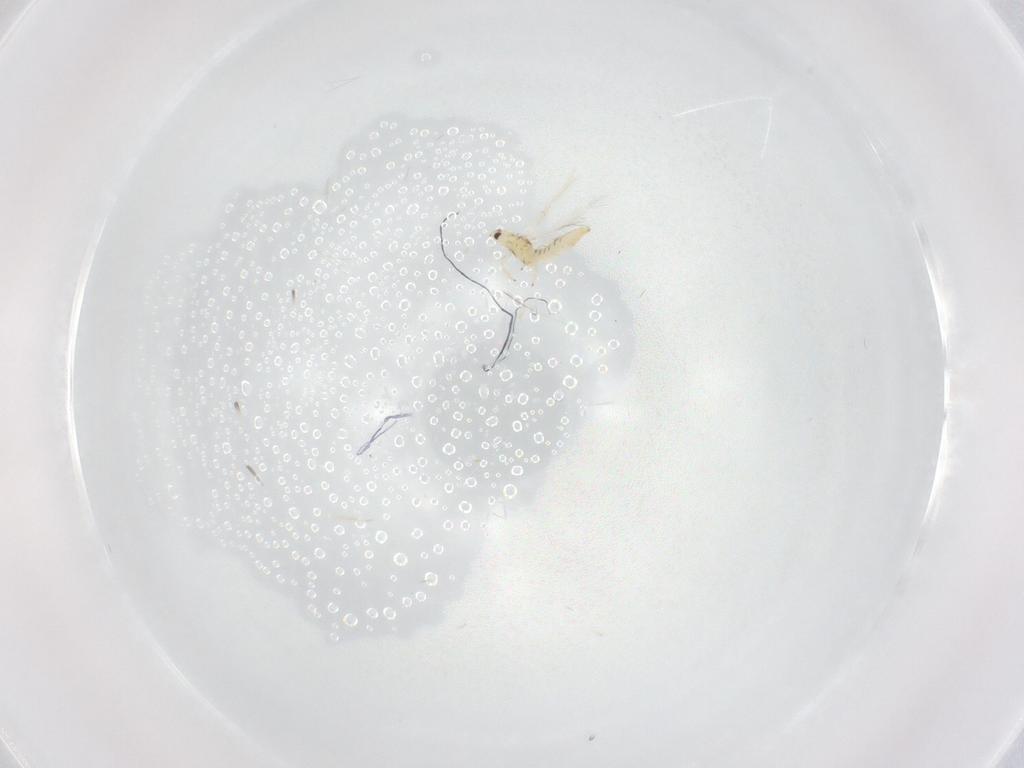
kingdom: Animalia
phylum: Arthropoda
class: Insecta
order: Thysanoptera
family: Thripidae
